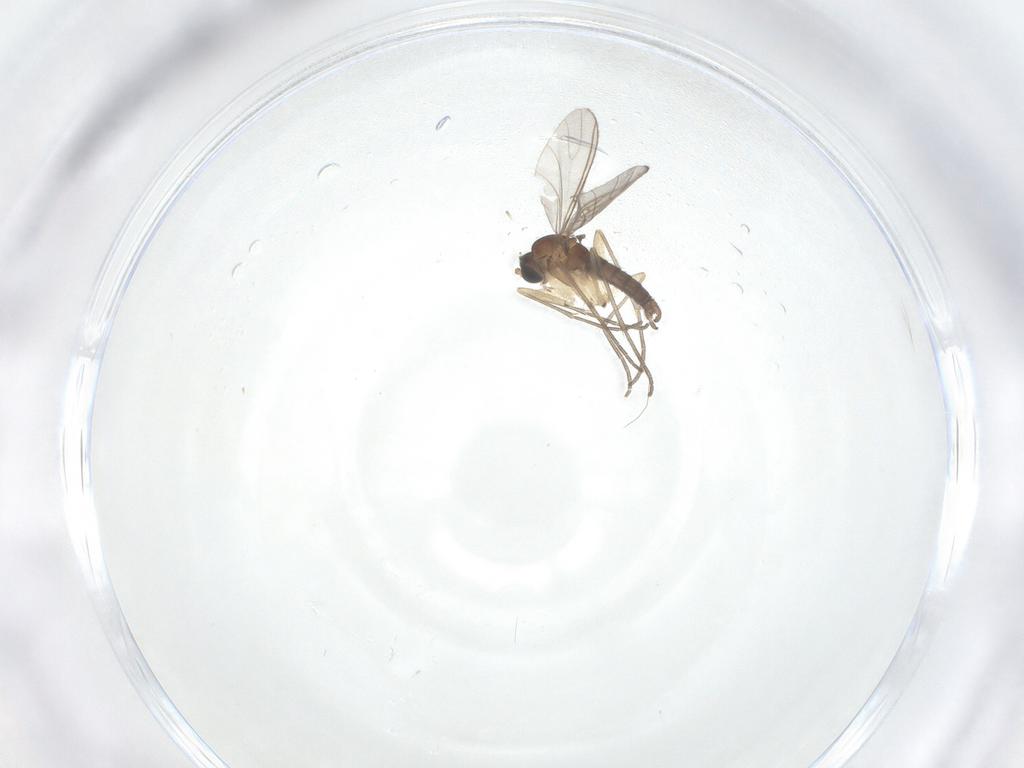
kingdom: Animalia
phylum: Arthropoda
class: Insecta
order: Diptera
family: Sciaridae
